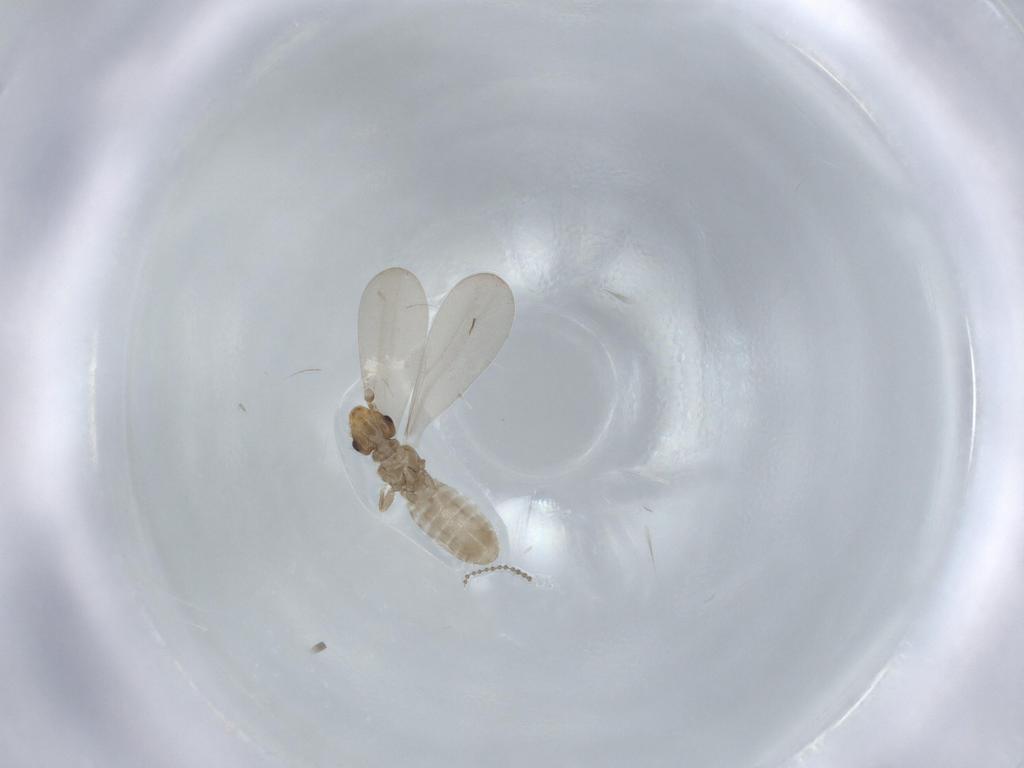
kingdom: Animalia
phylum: Arthropoda
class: Insecta
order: Psocodea
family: Liposcelididae
